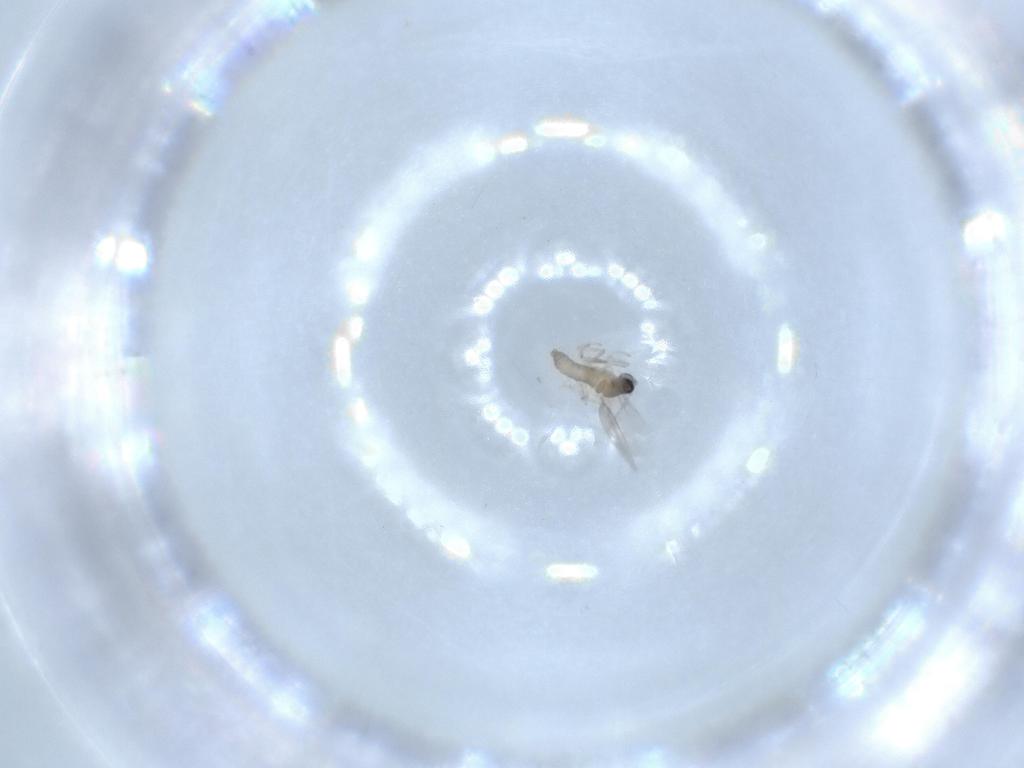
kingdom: Animalia
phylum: Arthropoda
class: Insecta
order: Diptera
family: Cecidomyiidae
